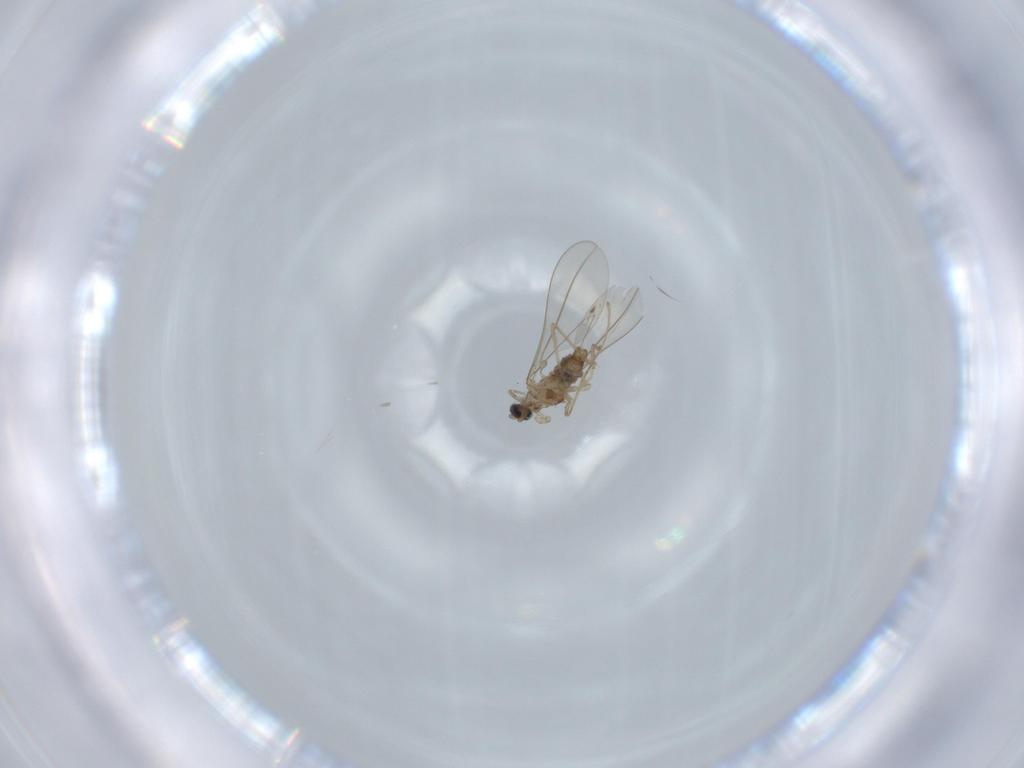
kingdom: Animalia
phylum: Arthropoda
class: Insecta
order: Diptera
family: Cecidomyiidae
